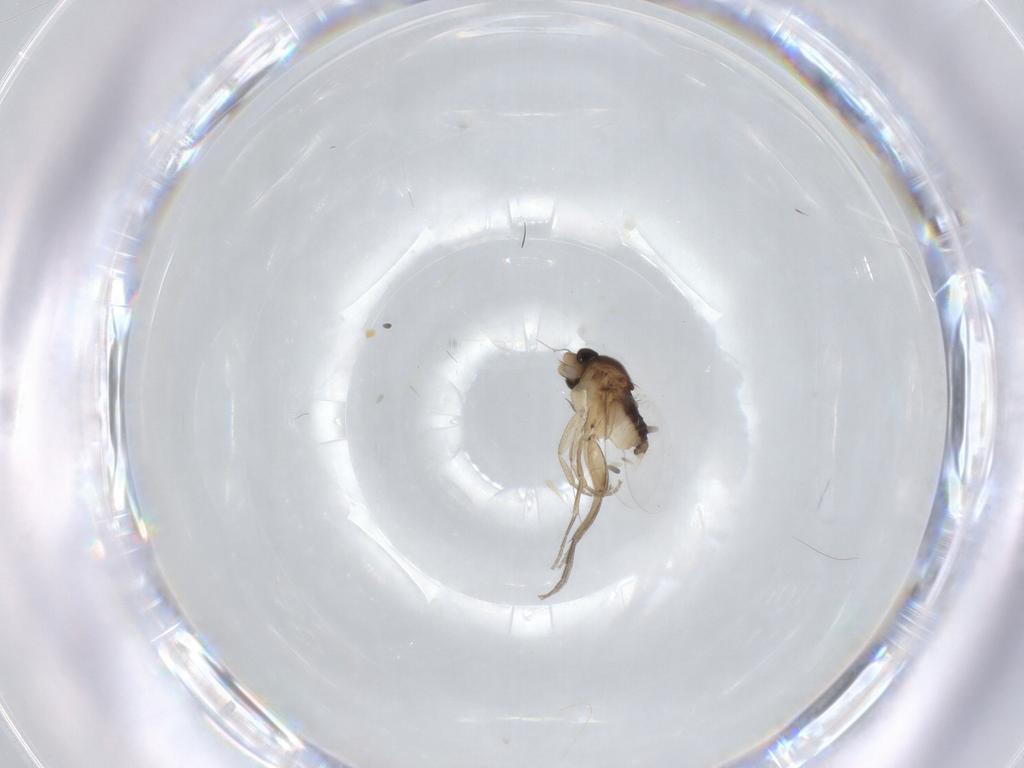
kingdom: Animalia
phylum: Arthropoda
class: Insecta
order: Diptera
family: Phoridae
